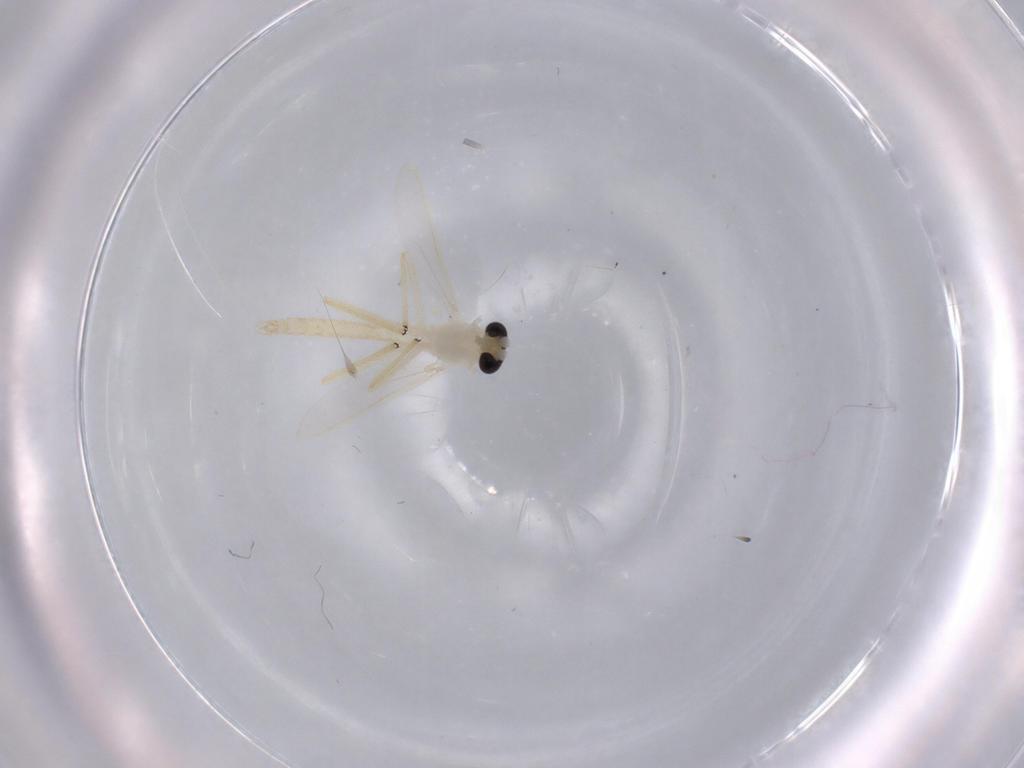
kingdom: Animalia
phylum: Arthropoda
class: Insecta
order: Diptera
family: Chironomidae
